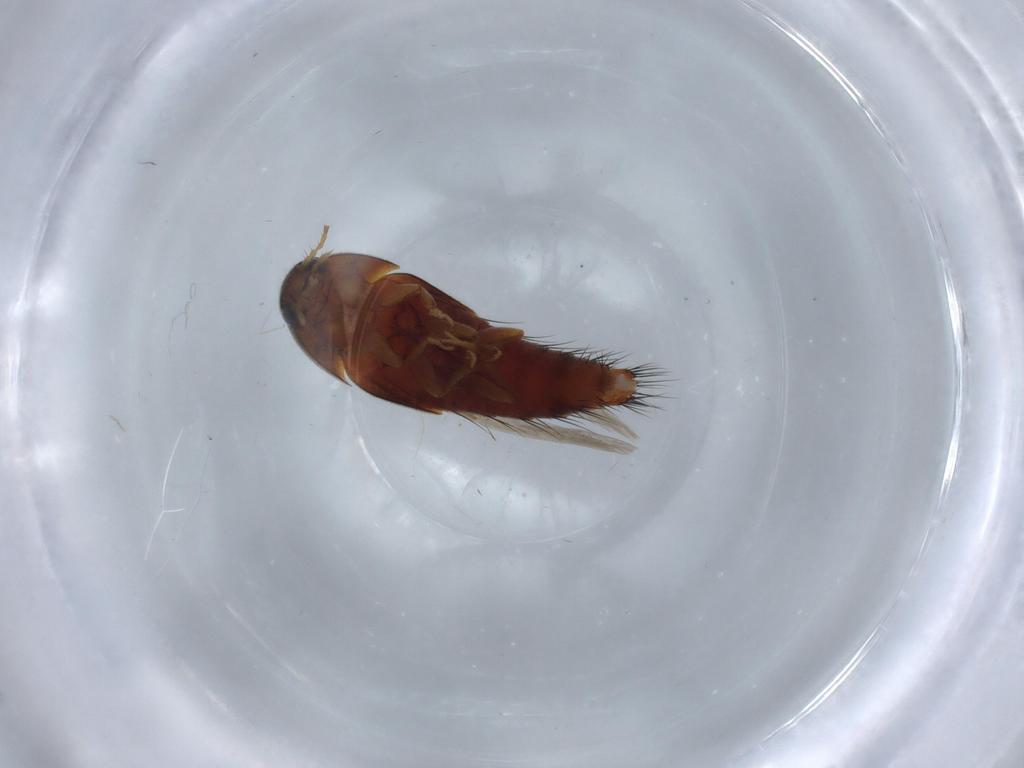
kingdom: Animalia
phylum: Arthropoda
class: Insecta
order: Coleoptera
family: Staphylinidae
